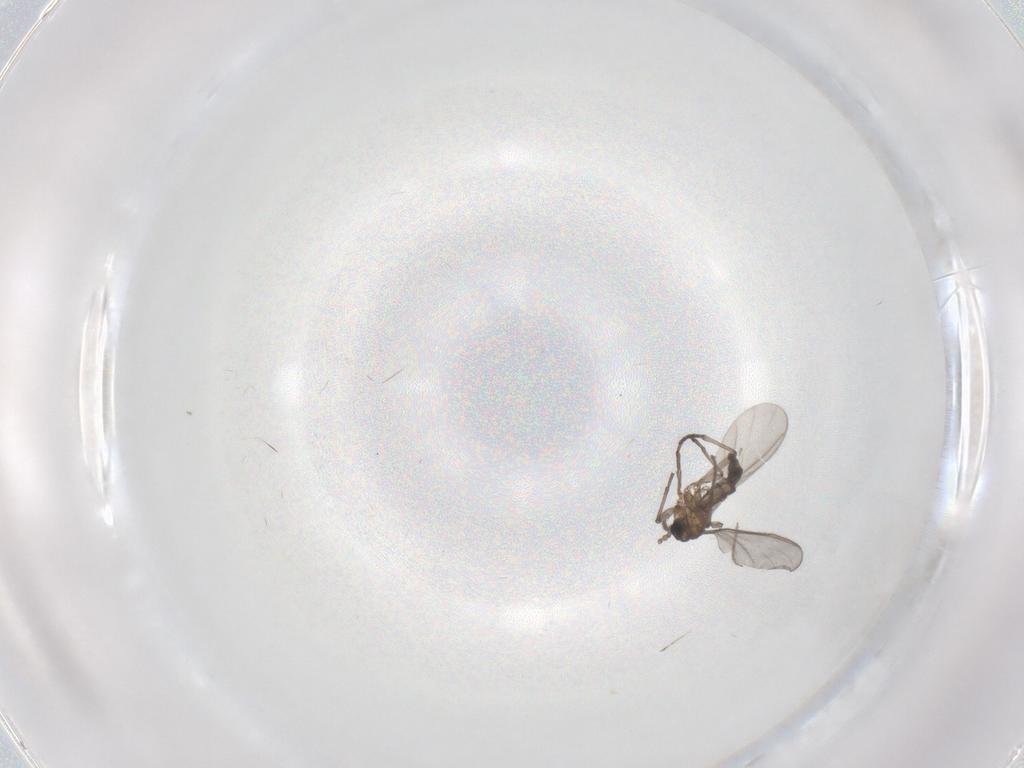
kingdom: Animalia
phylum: Arthropoda
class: Insecta
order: Diptera
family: Sciaridae
